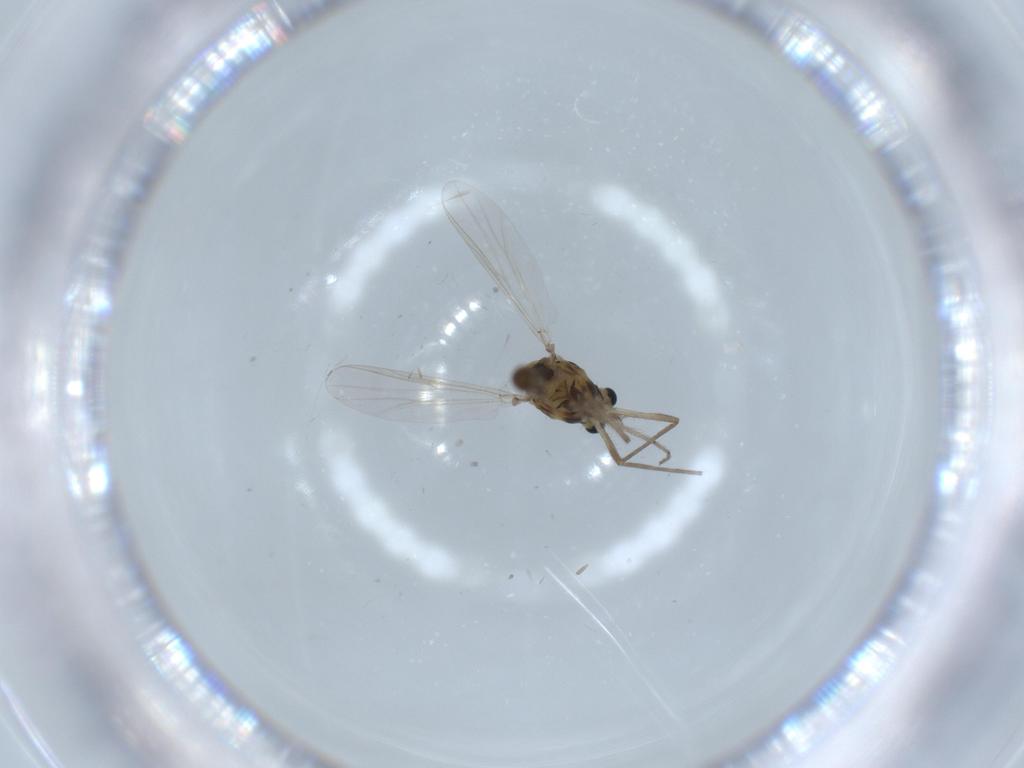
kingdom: Animalia
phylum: Arthropoda
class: Insecta
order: Diptera
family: Chironomidae
